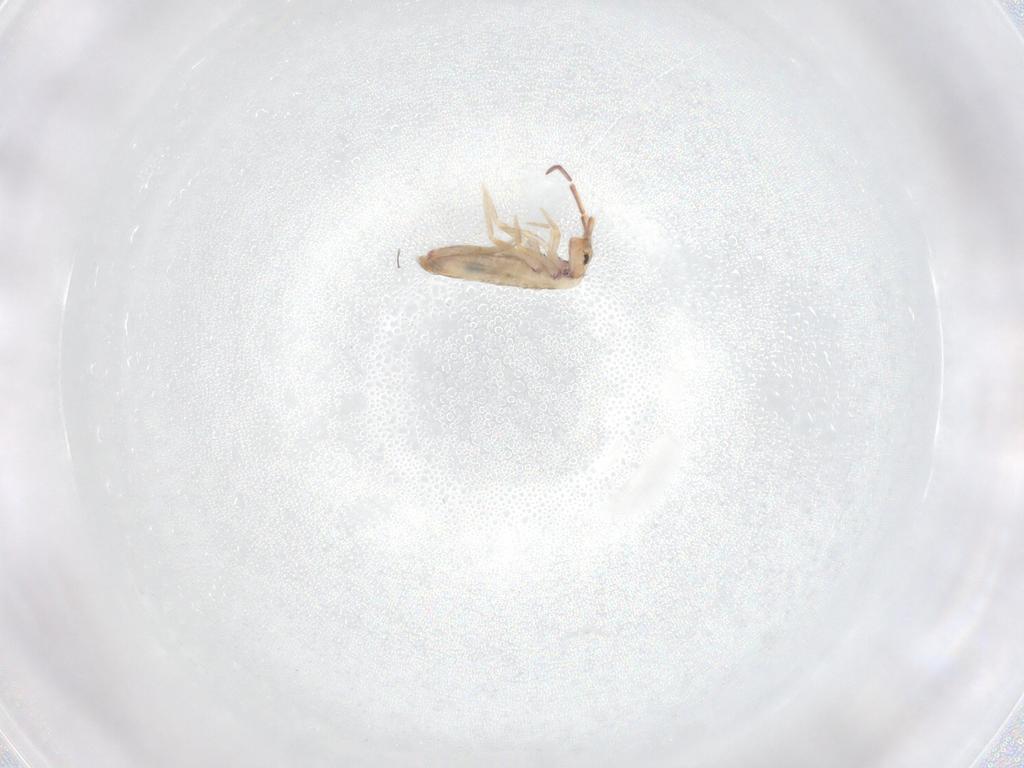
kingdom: Animalia
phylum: Arthropoda
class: Collembola
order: Entomobryomorpha
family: Entomobryidae
